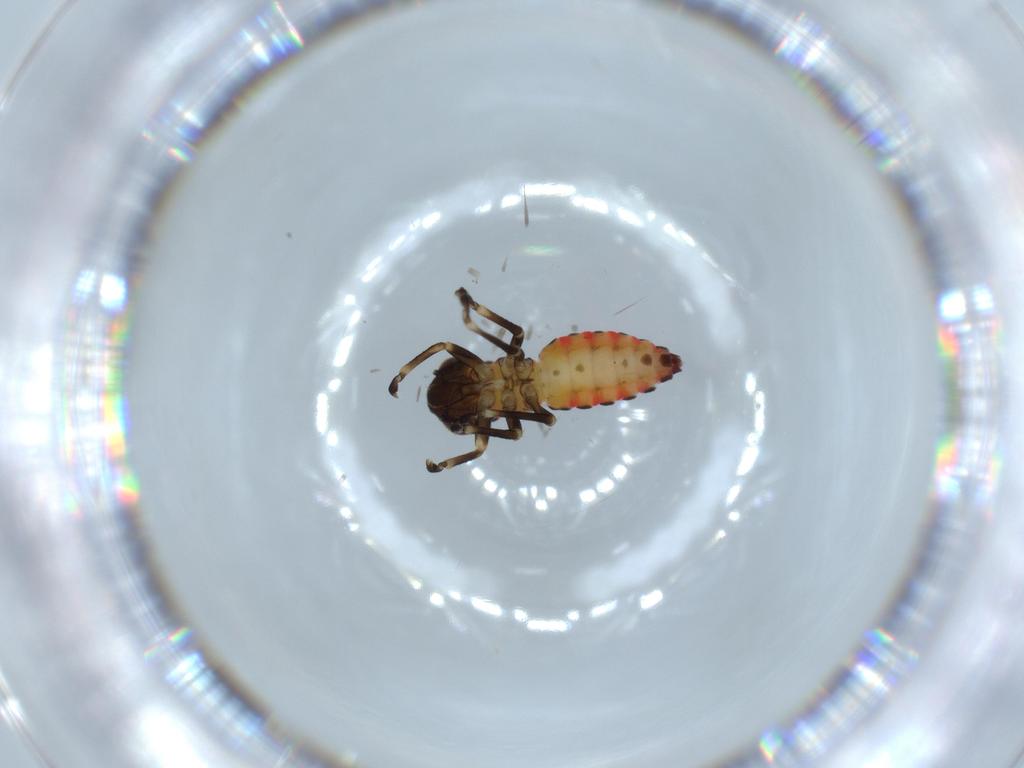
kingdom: Animalia
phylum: Arthropoda
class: Insecta
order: Hemiptera
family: Cicadellidae
